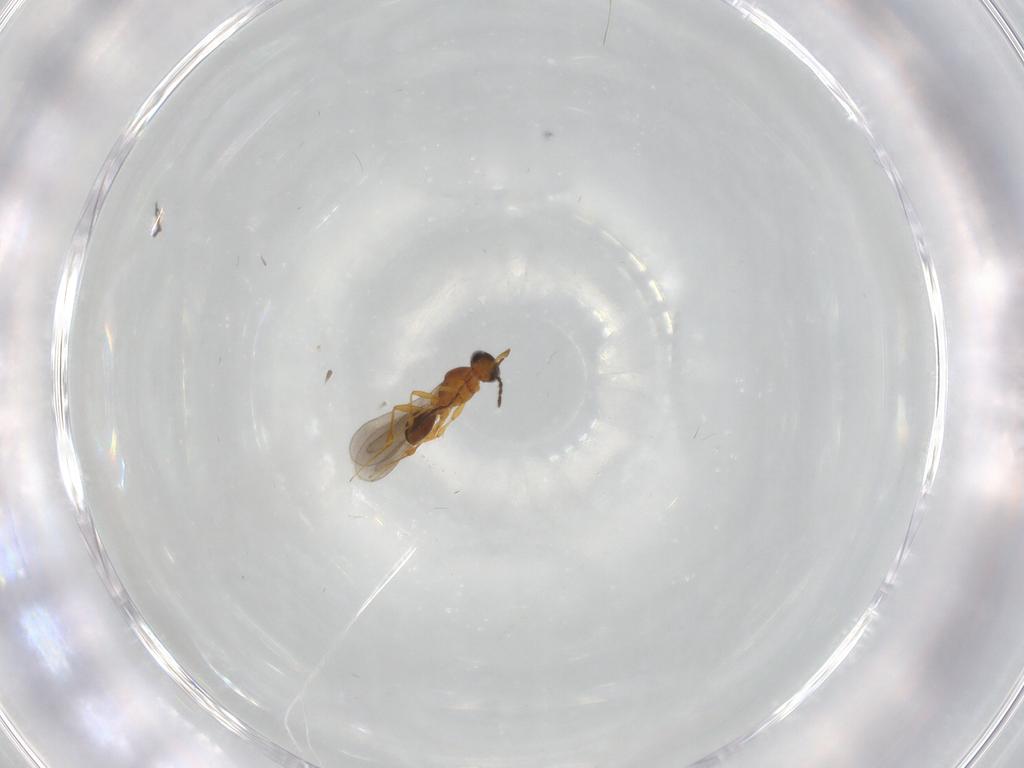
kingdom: Animalia
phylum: Arthropoda
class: Insecta
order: Hymenoptera
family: Platygastridae
